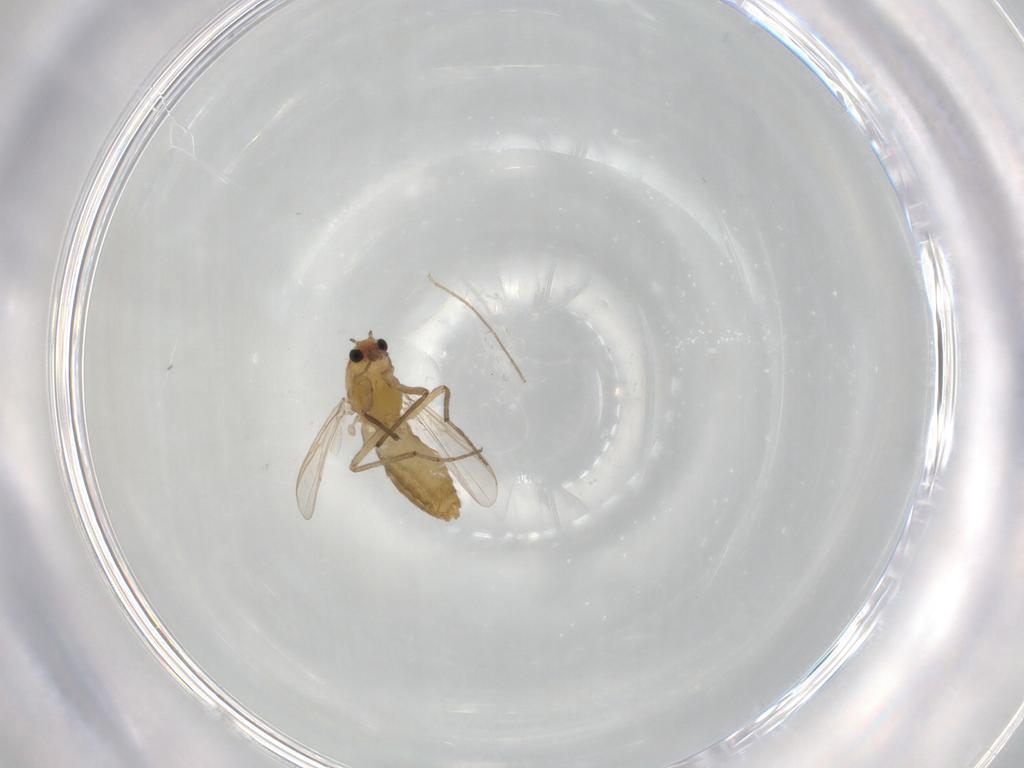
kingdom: Animalia
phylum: Arthropoda
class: Insecta
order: Diptera
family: Chironomidae
